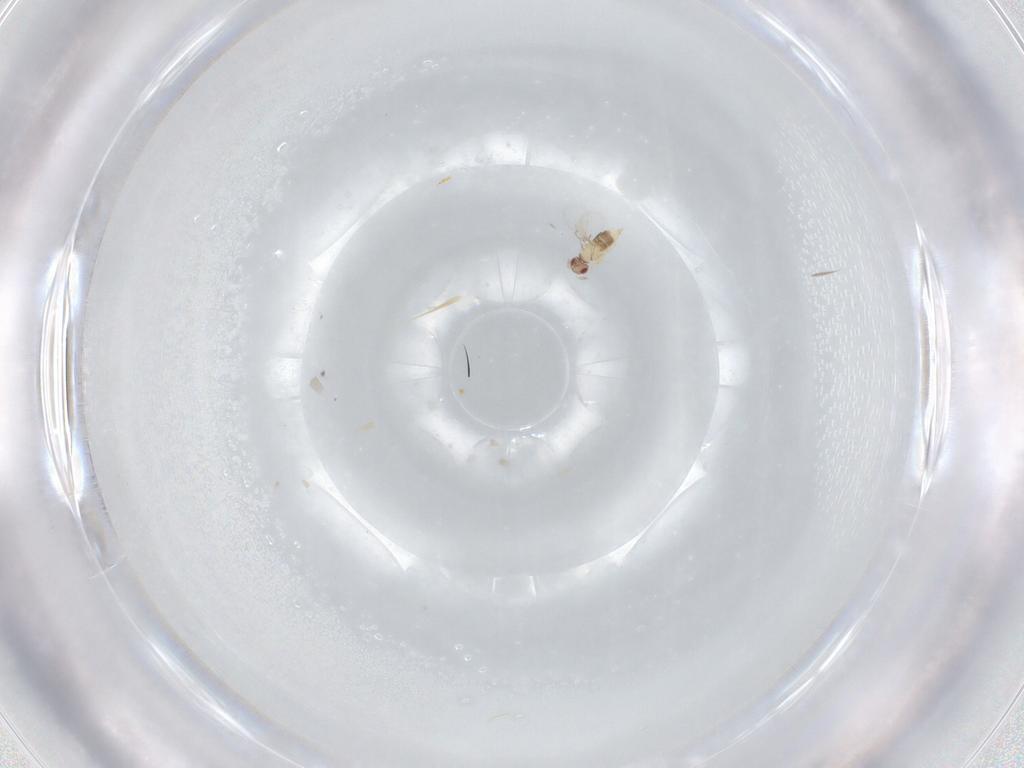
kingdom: Animalia
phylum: Arthropoda
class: Insecta
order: Hymenoptera
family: Trichogrammatidae
